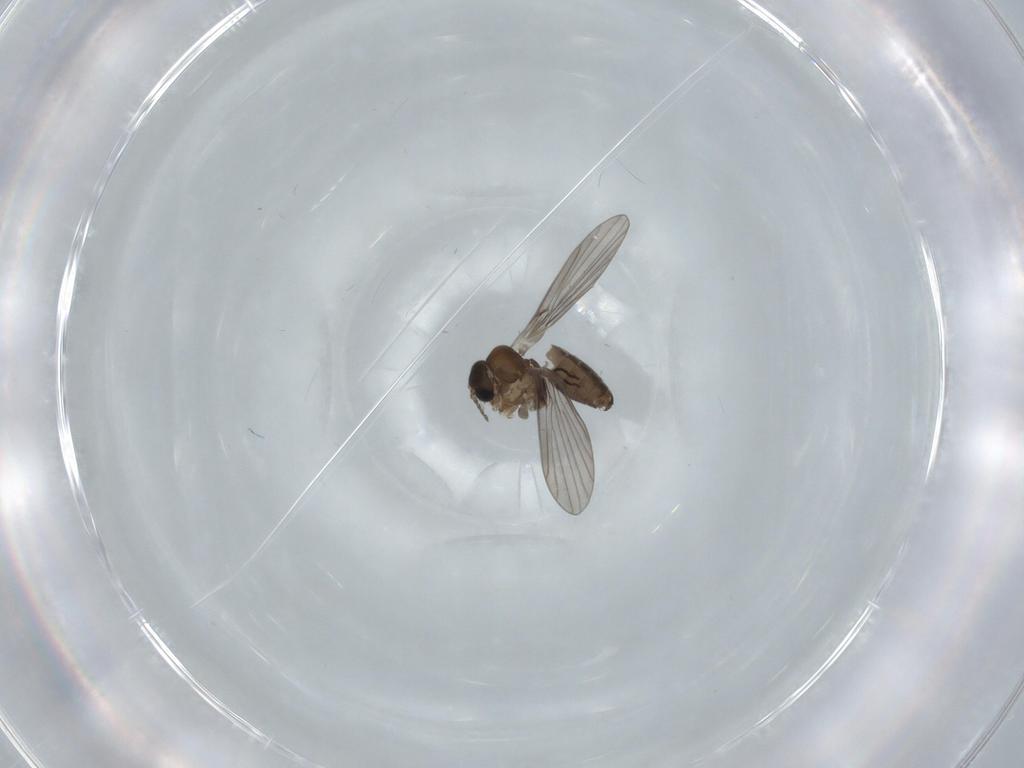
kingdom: Animalia
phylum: Arthropoda
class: Insecta
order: Diptera
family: Psychodidae
